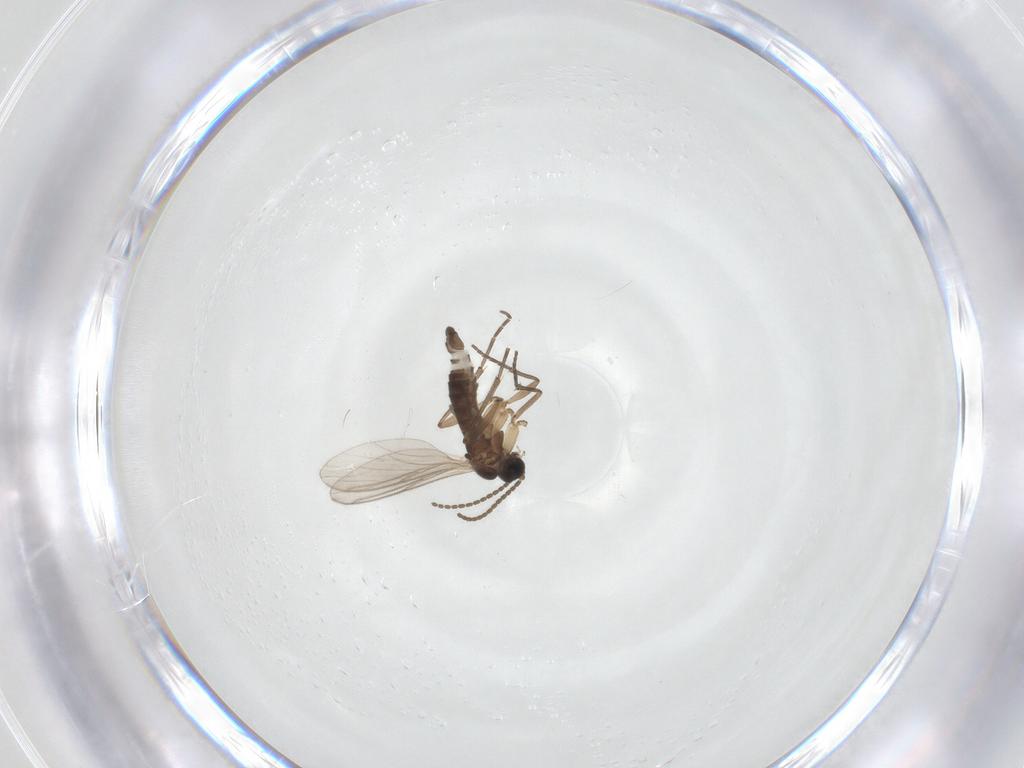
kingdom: Animalia
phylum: Arthropoda
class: Insecta
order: Diptera
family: Sciaridae
